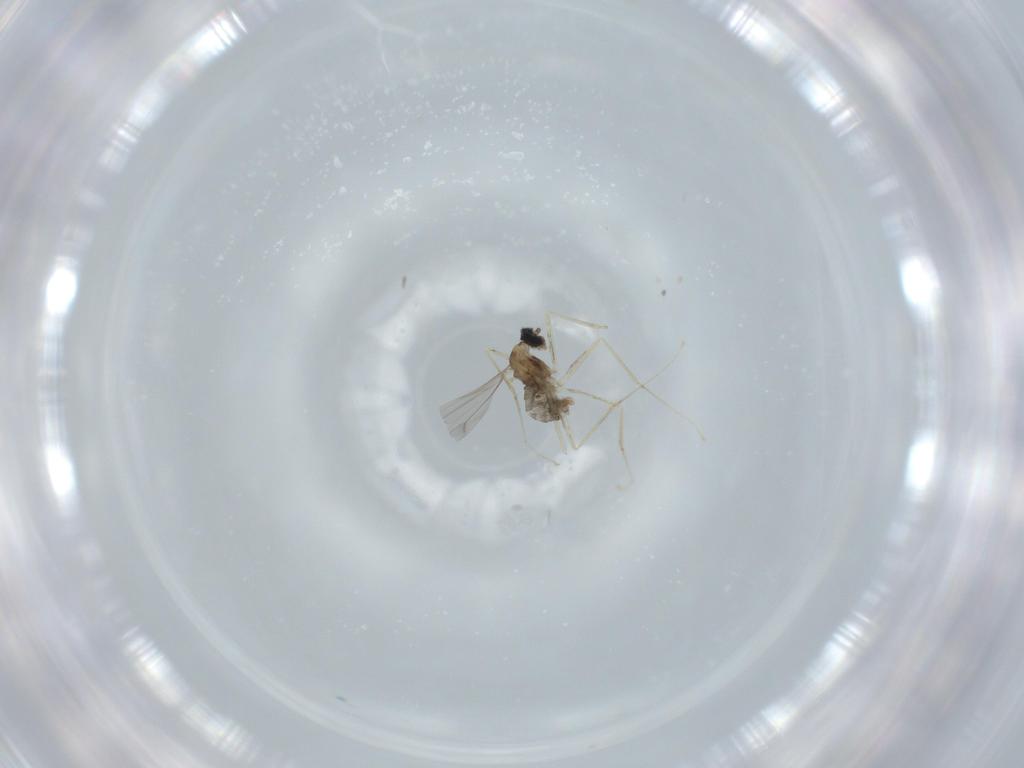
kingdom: Animalia
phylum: Arthropoda
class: Insecta
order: Diptera
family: Cecidomyiidae
